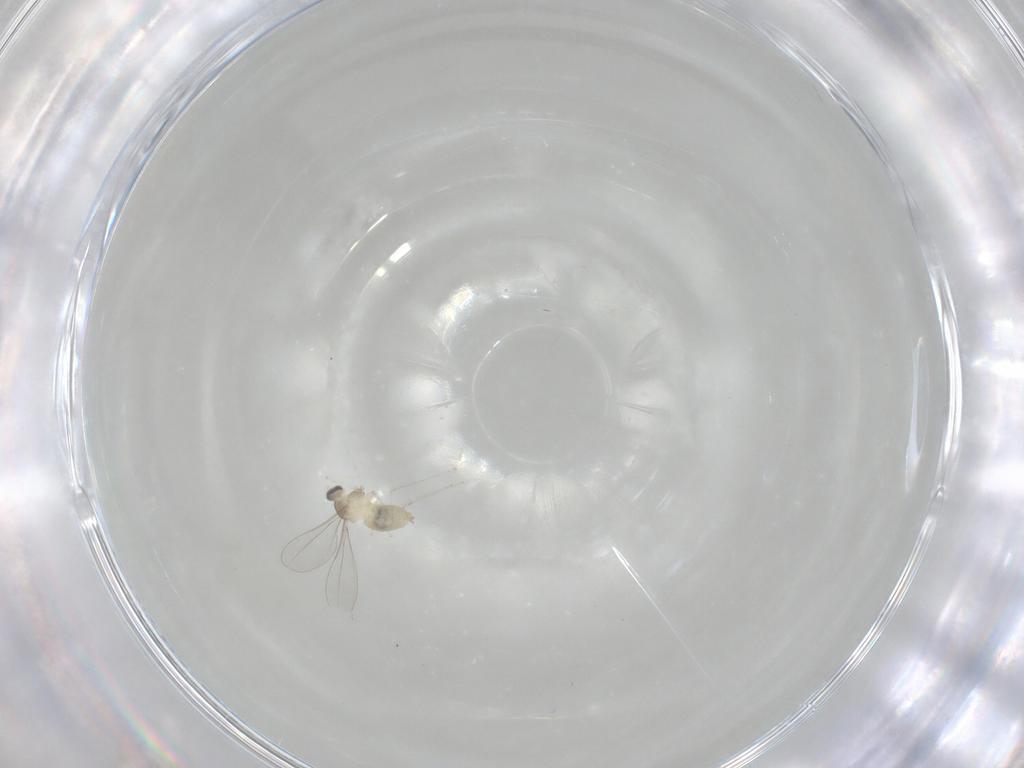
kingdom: Animalia
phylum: Arthropoda
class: Insecta
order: Diptera
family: Cecidomyiidae
